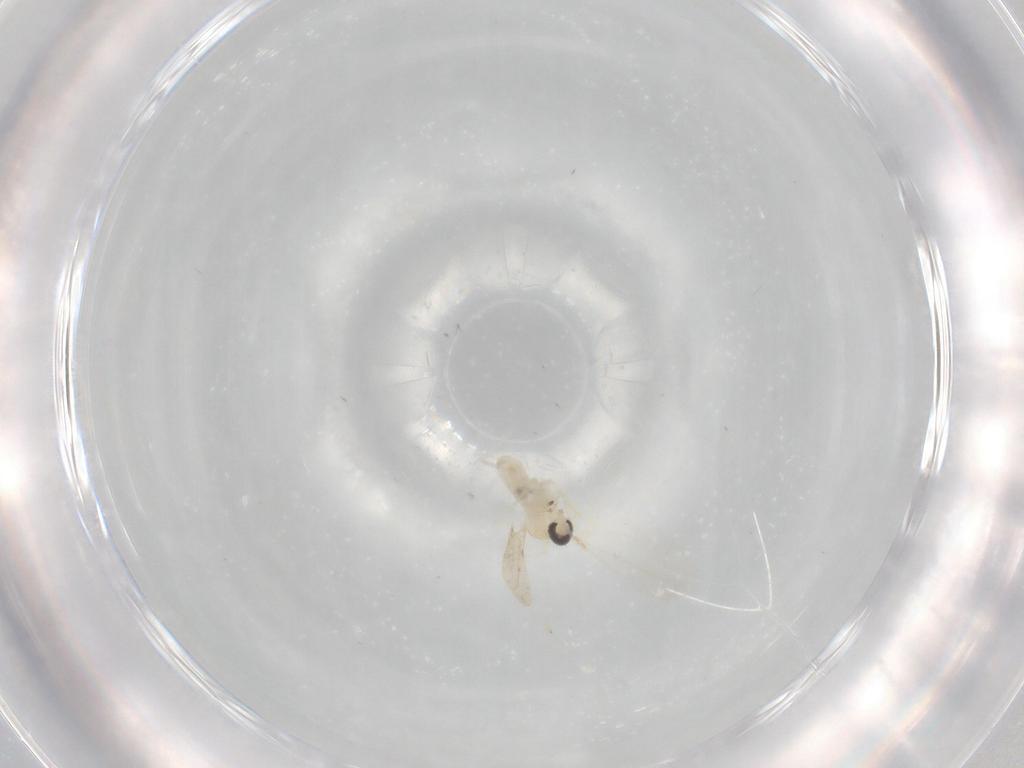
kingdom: Animalia
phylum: Arthropoda
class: Insecta
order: Diptera
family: Cecidomyiidae
